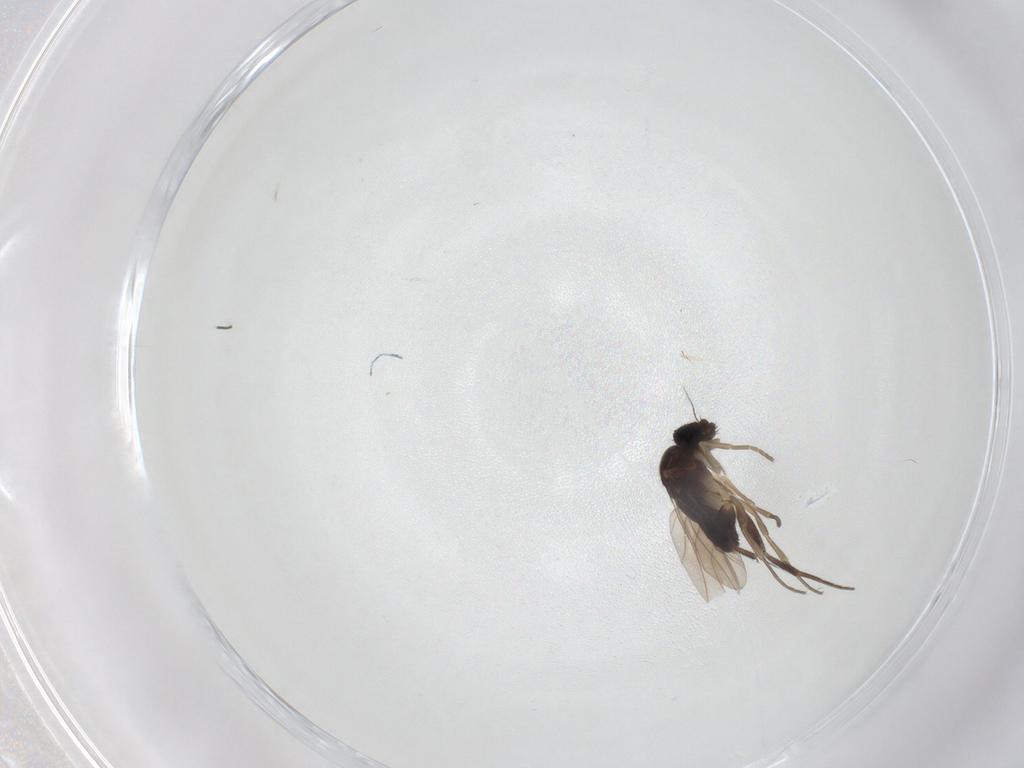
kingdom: Animalia
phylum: Arthropoda
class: Insecta
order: Diptera
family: Phoridae
